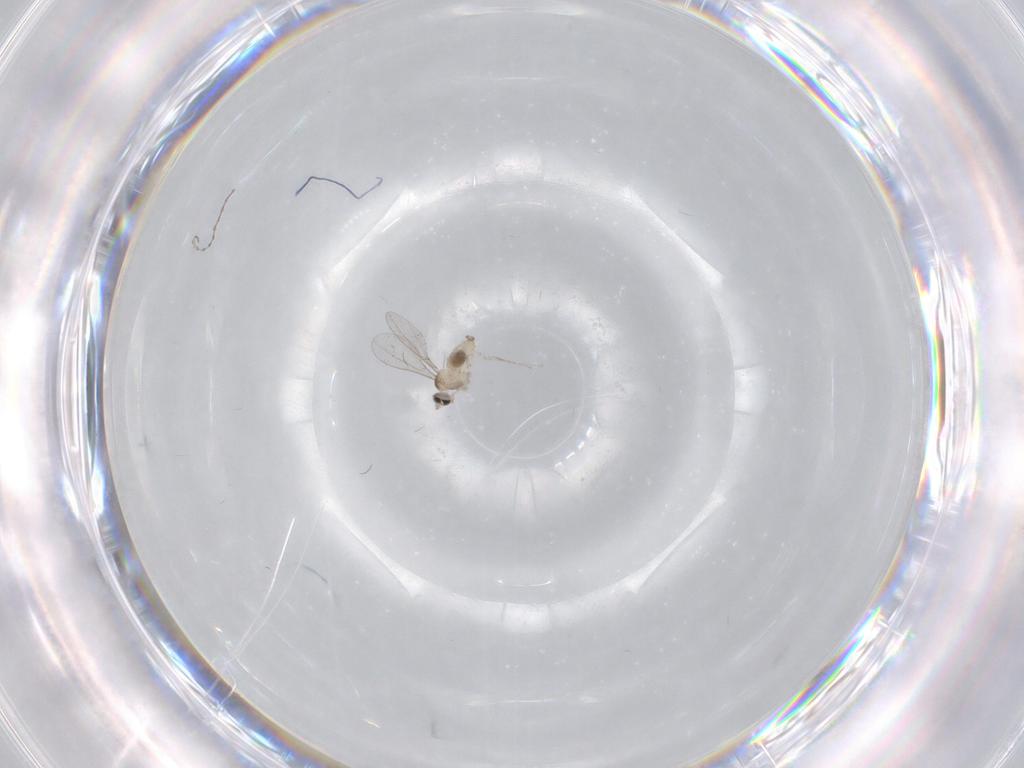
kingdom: Animalia
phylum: Arthropoda
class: Insecta
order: Diptera
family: Cecidomyiidae
